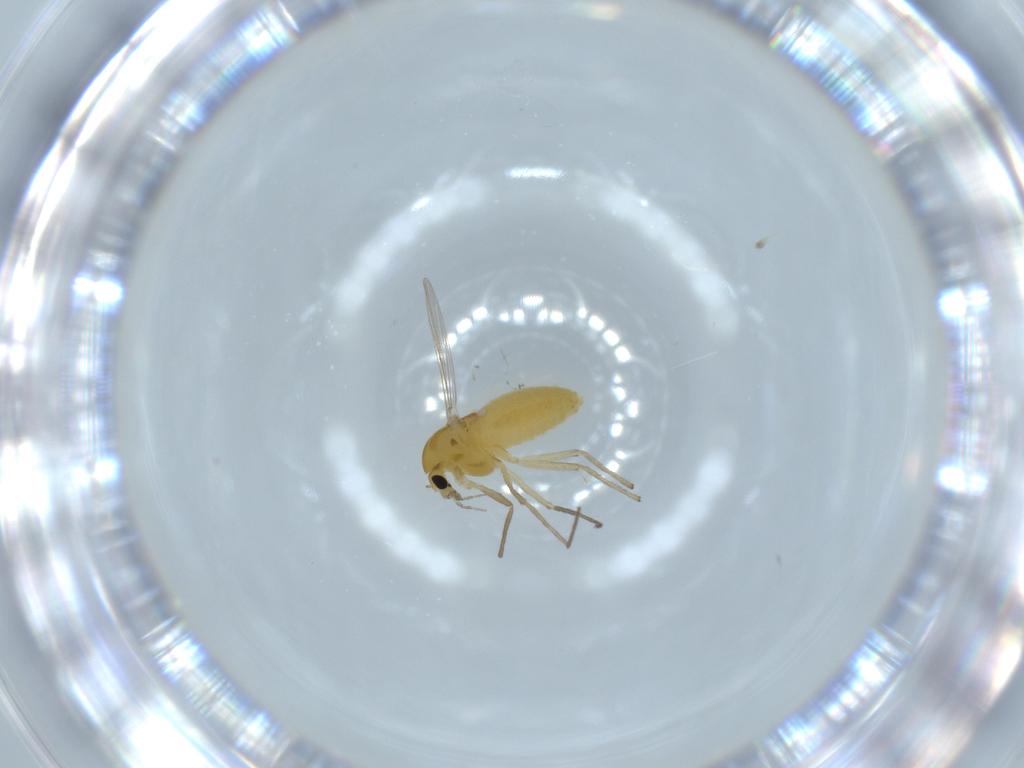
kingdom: Animalia
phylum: Arthropoda
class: Insecta
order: Diptera
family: Chironomidae
